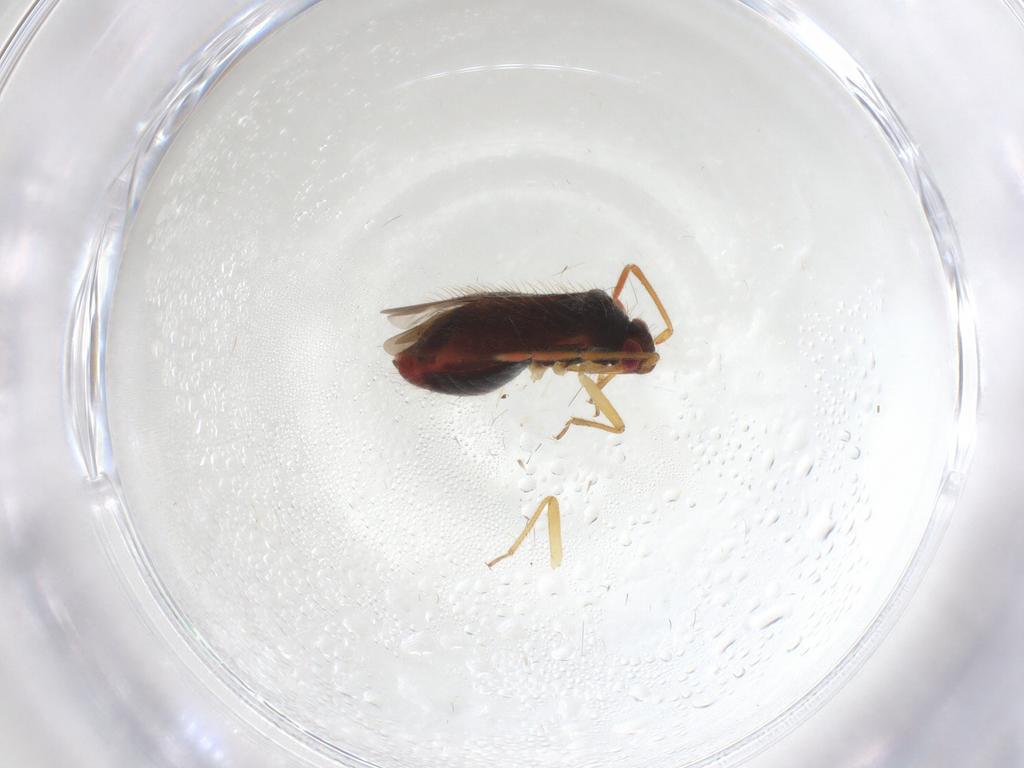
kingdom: Animalia
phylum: Arthropoda
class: Insecta
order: Hemiptera
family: Miridae
